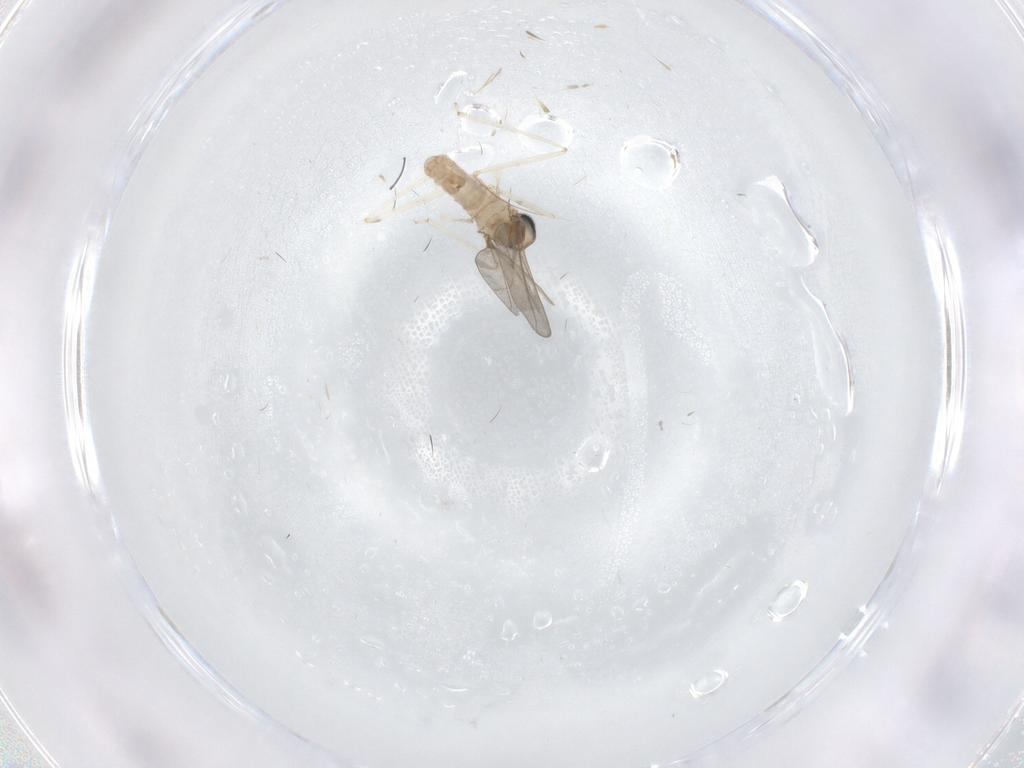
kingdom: Animalia
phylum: Arthropoda
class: Insecta
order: Diptera
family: Cecidomyiidae
